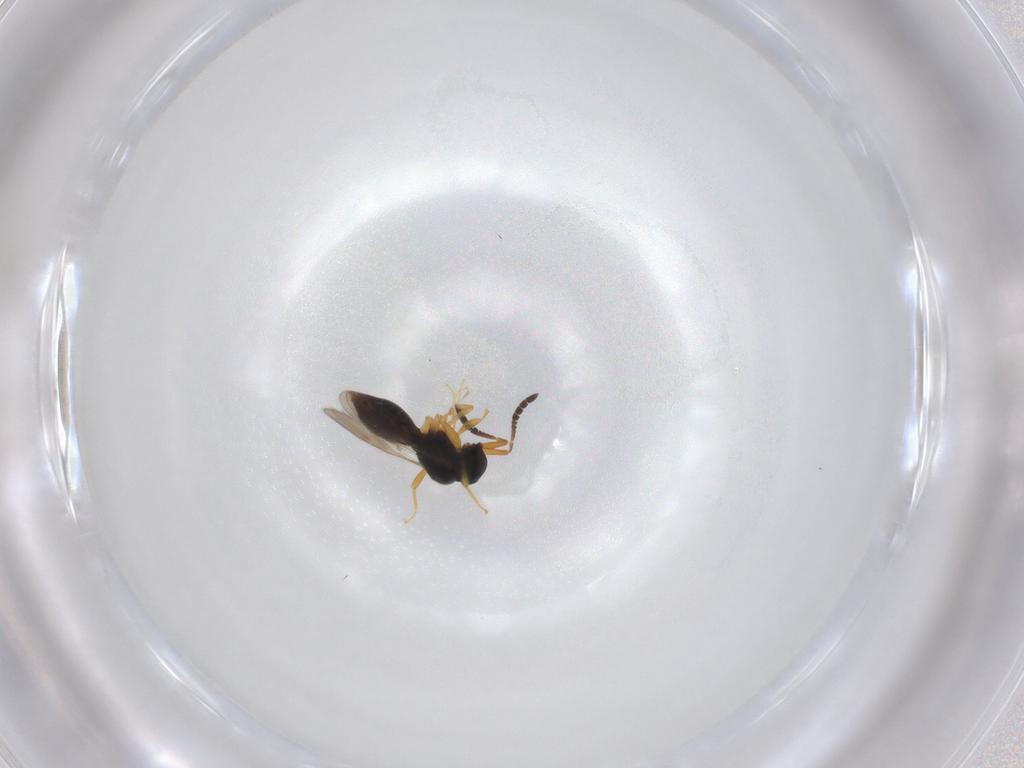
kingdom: Animalia
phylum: Arthropoda
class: Insecta
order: Hymenoptera
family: Ceraphronidae
